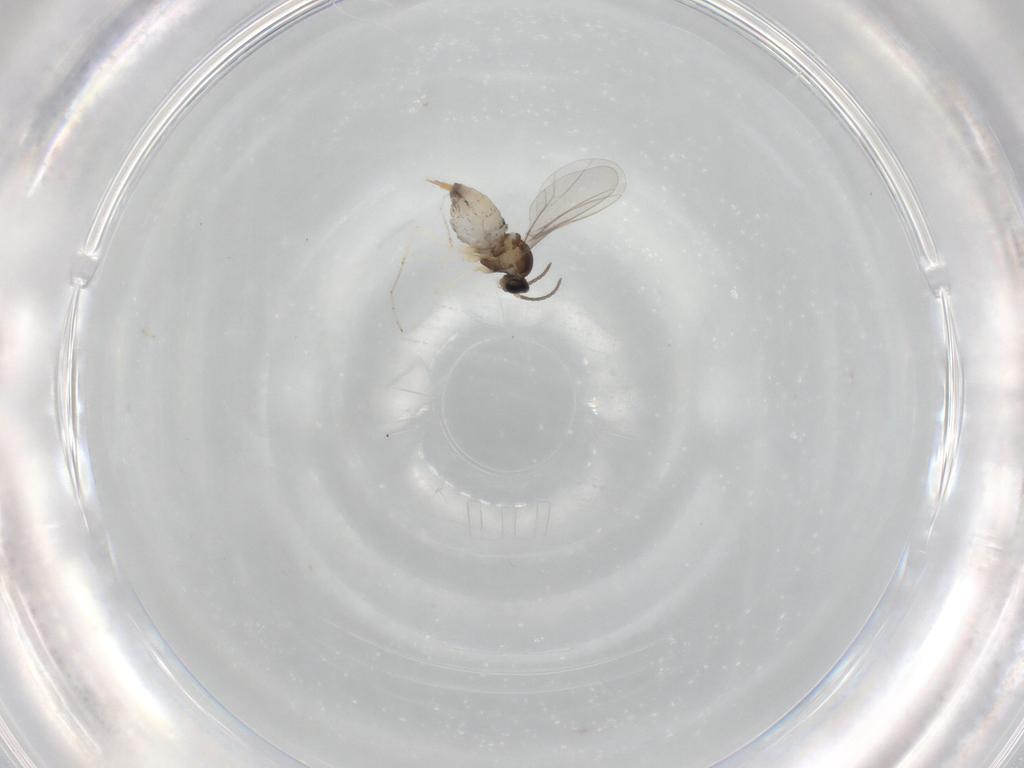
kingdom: Animalia
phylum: Arthropoda
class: Insecta
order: Diptera
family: Cecidomyiidae
